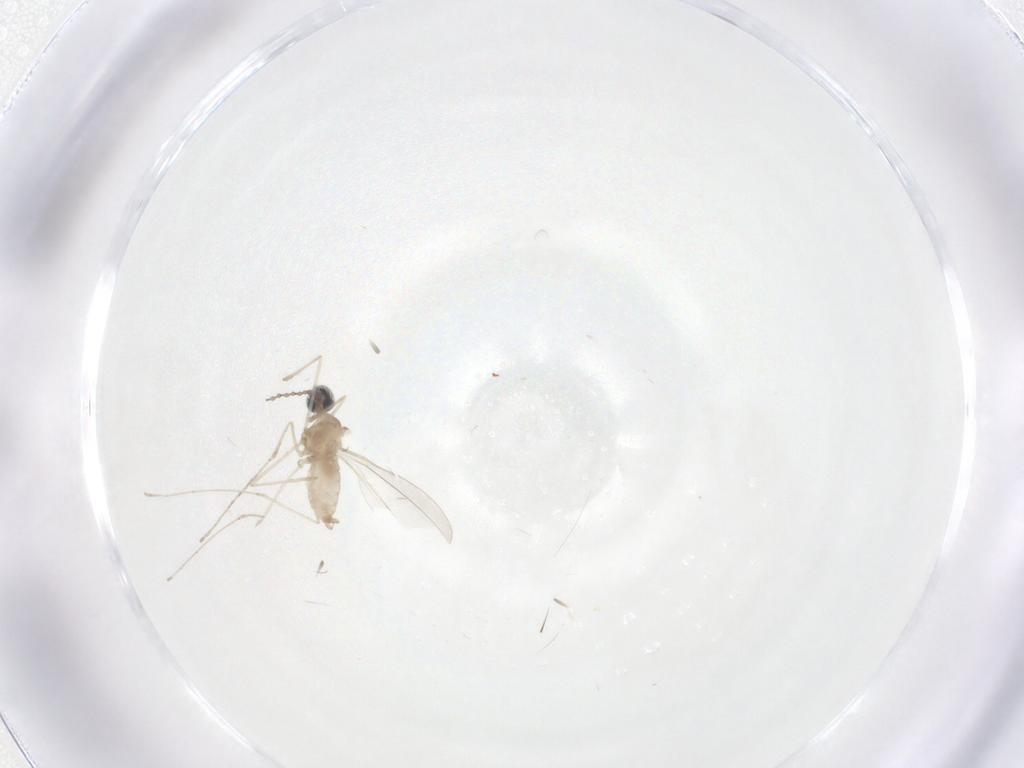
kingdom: Animalia
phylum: Arthropoda
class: Insecta
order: Diptera
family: Cecidomyiidae
